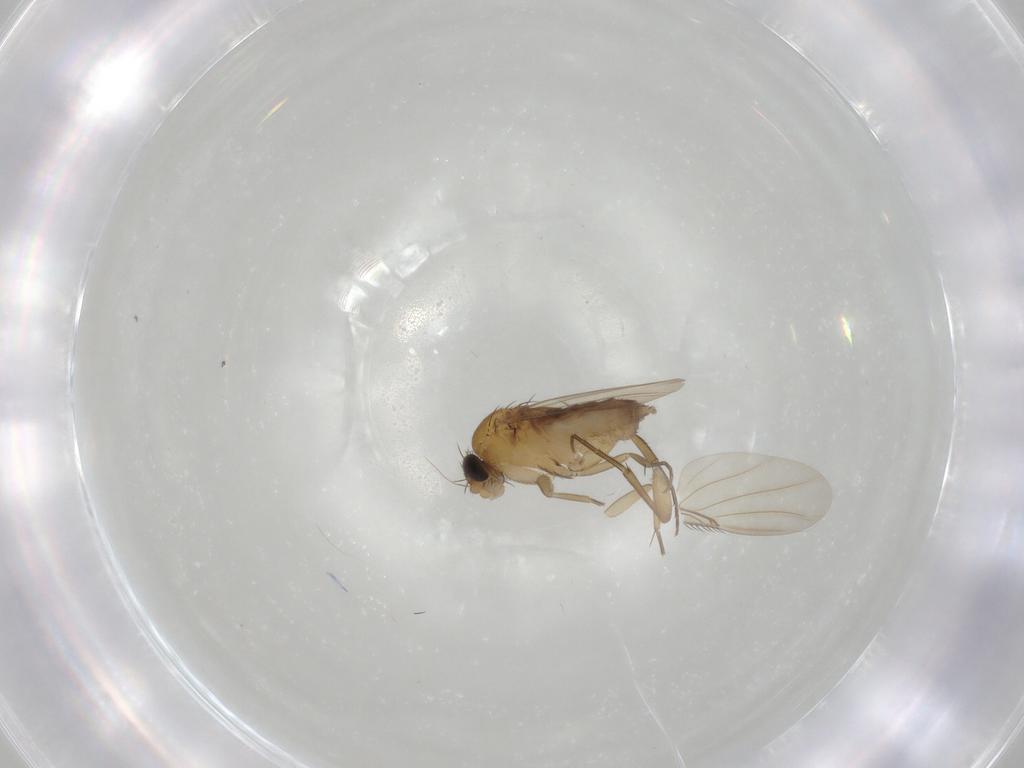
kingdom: Animalia
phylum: Arthropoda
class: Insecta
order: Diptera
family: Phoridae
